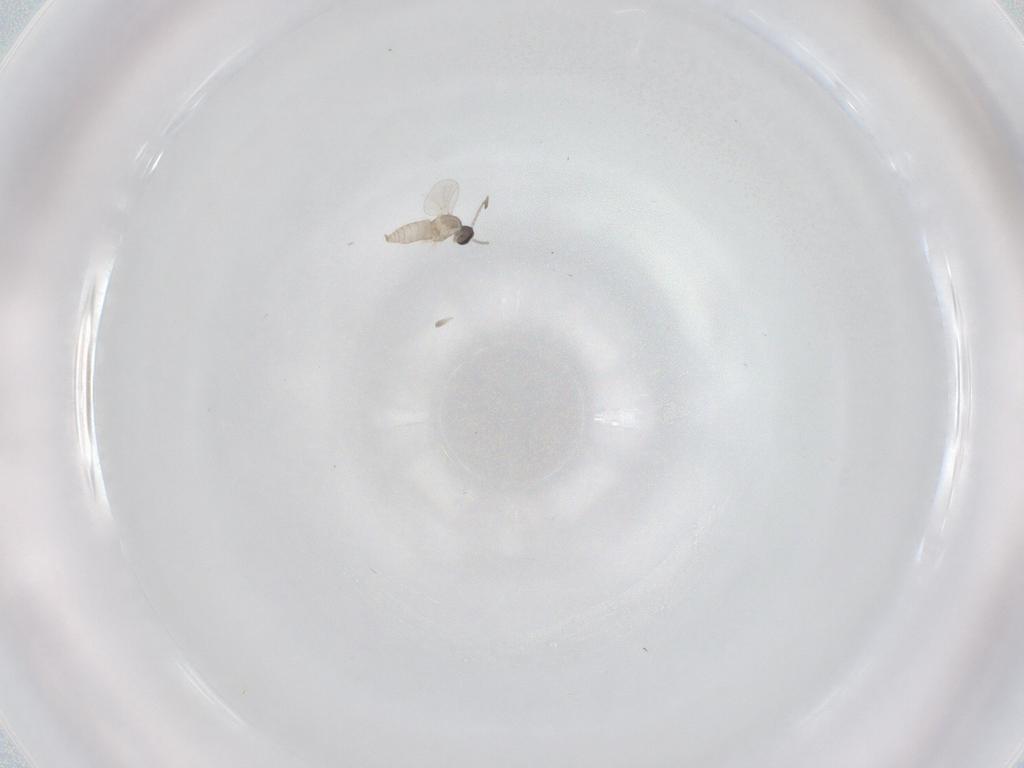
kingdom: Animalia
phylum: Arthropoda
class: Insecta
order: Diptera
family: Cecidomyiidae
